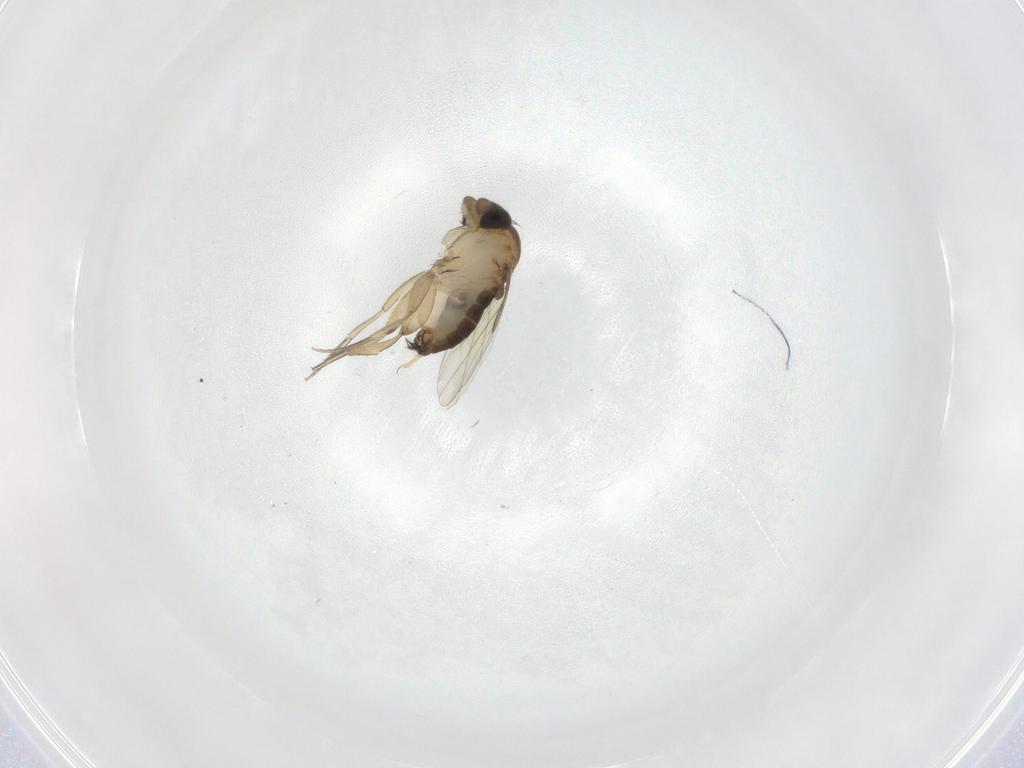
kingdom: Animalia
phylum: Arthropoda
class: Insecta
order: Diptera
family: Phoridae
